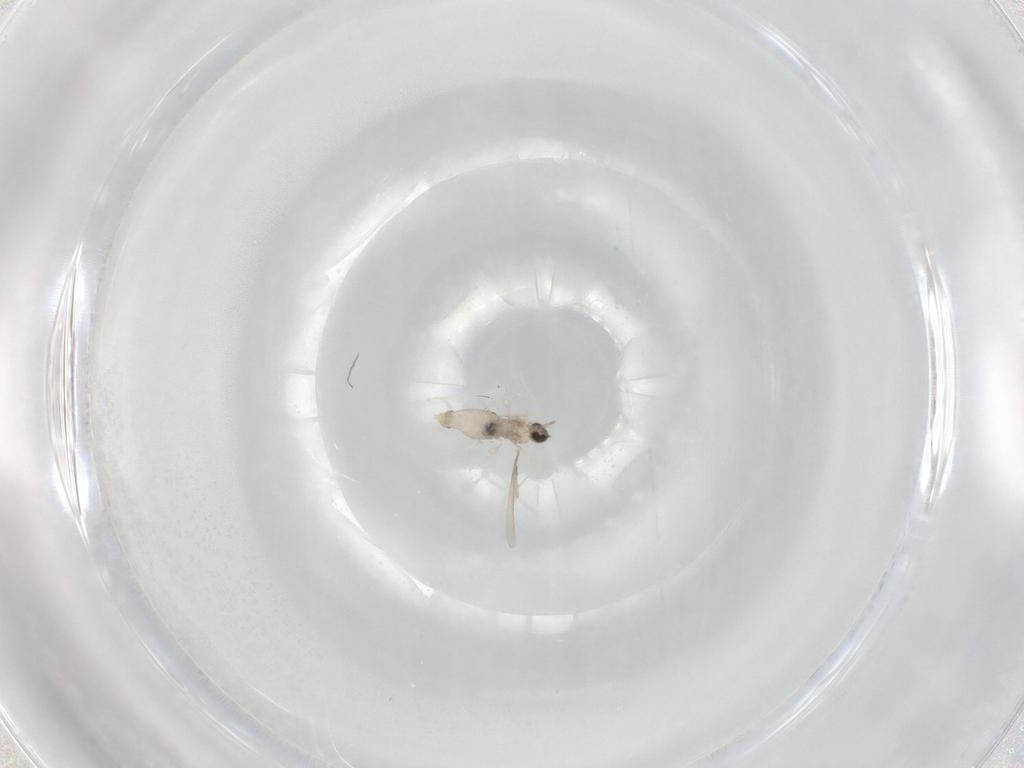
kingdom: Animalia
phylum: Arthropoda
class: Insecta
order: Diptera
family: Cecidomyiidae
